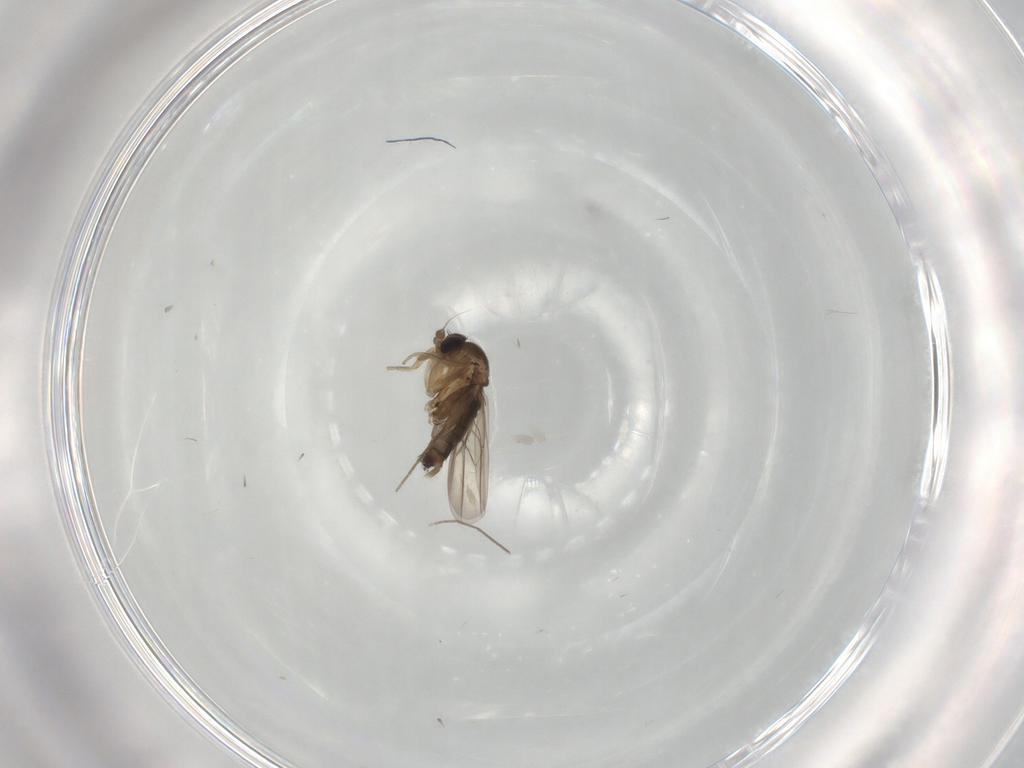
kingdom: Animalia
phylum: Arthropoda
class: Insecta
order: Diptera
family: Phoridae
